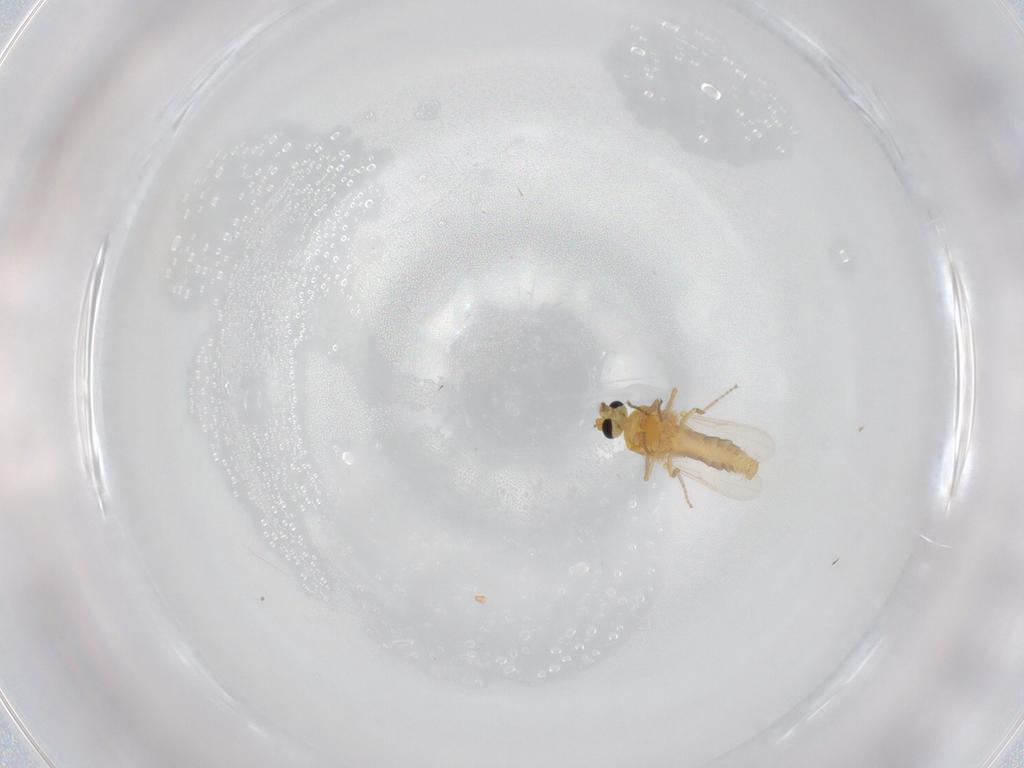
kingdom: Animalia
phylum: Arthropoda
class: Insecta
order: Diptera
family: Ceratopogonidae
